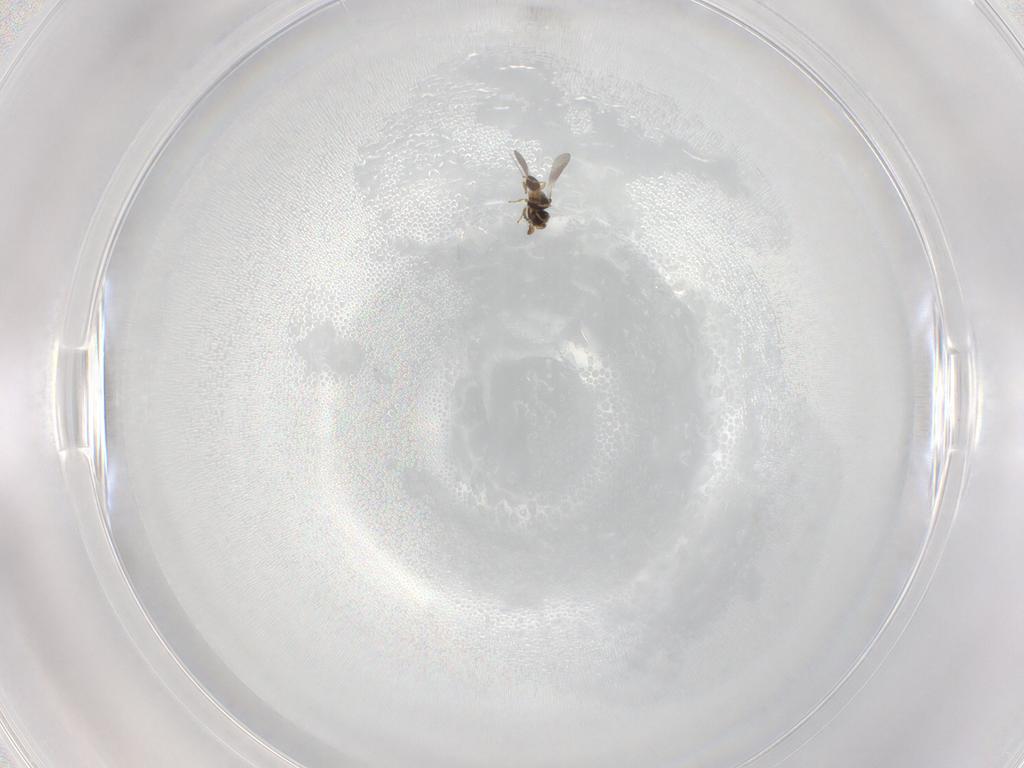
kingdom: Animalia
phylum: Arthropoda
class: Insecta
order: Hymenoptera
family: Platygastridae
